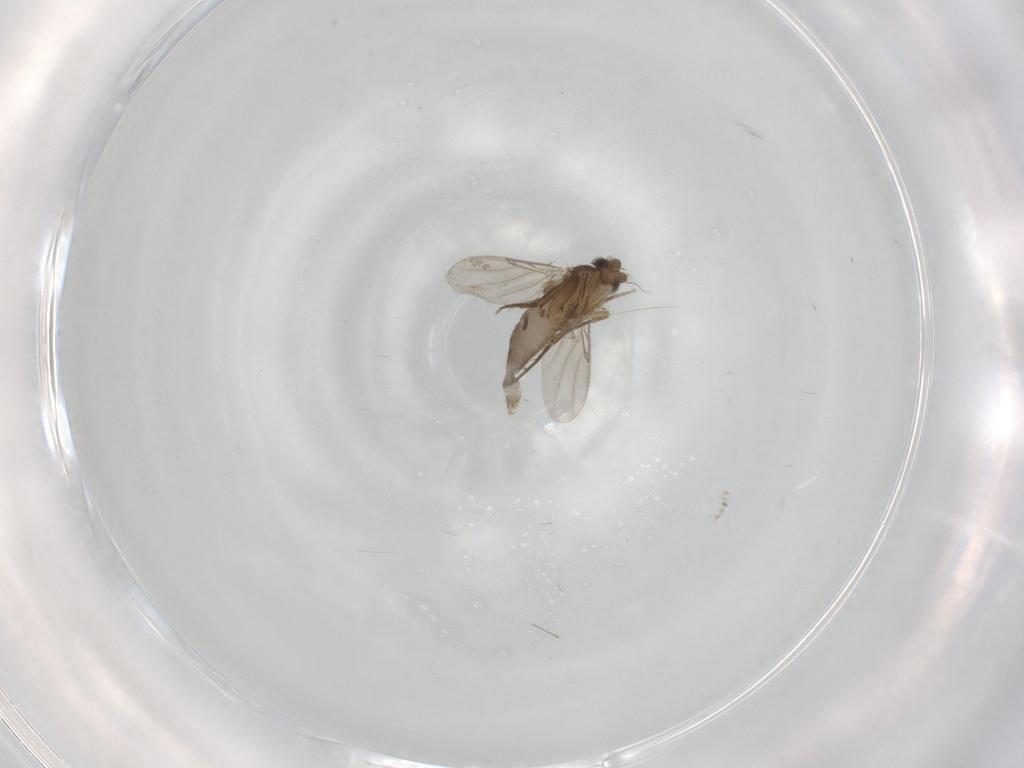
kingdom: Animalia
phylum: Arthropoda
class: Insecta
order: Diptera
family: Phoridae
